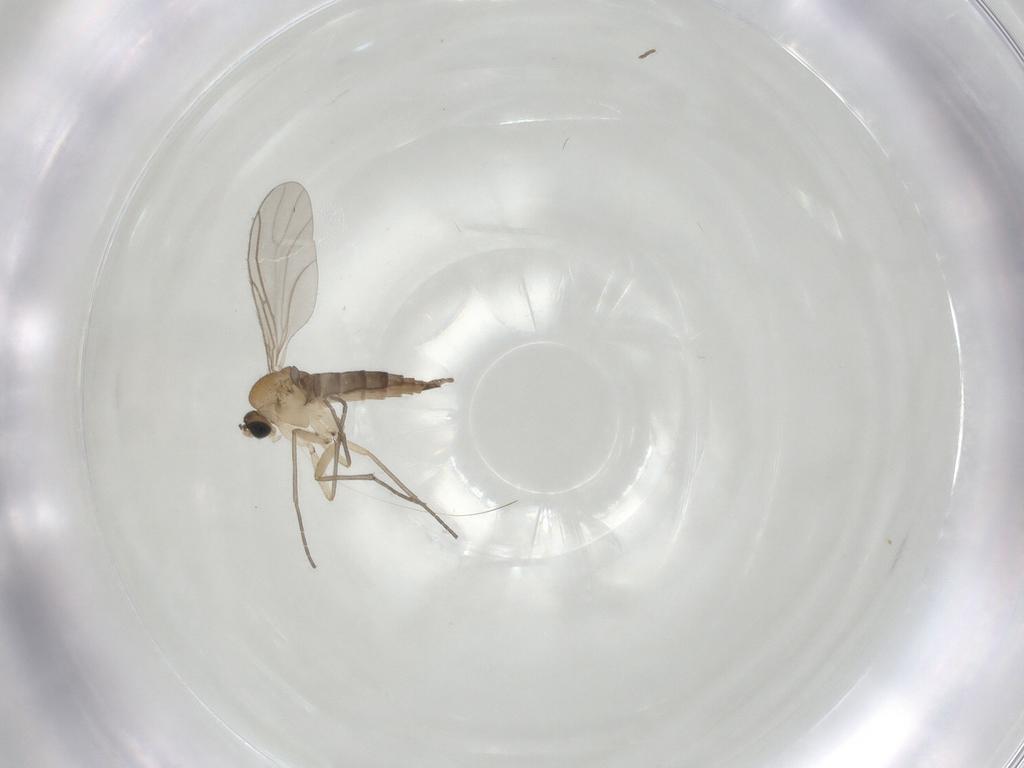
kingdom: Animalia
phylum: Arthropoda
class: Insecta
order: Diptera
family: Sciaridae
